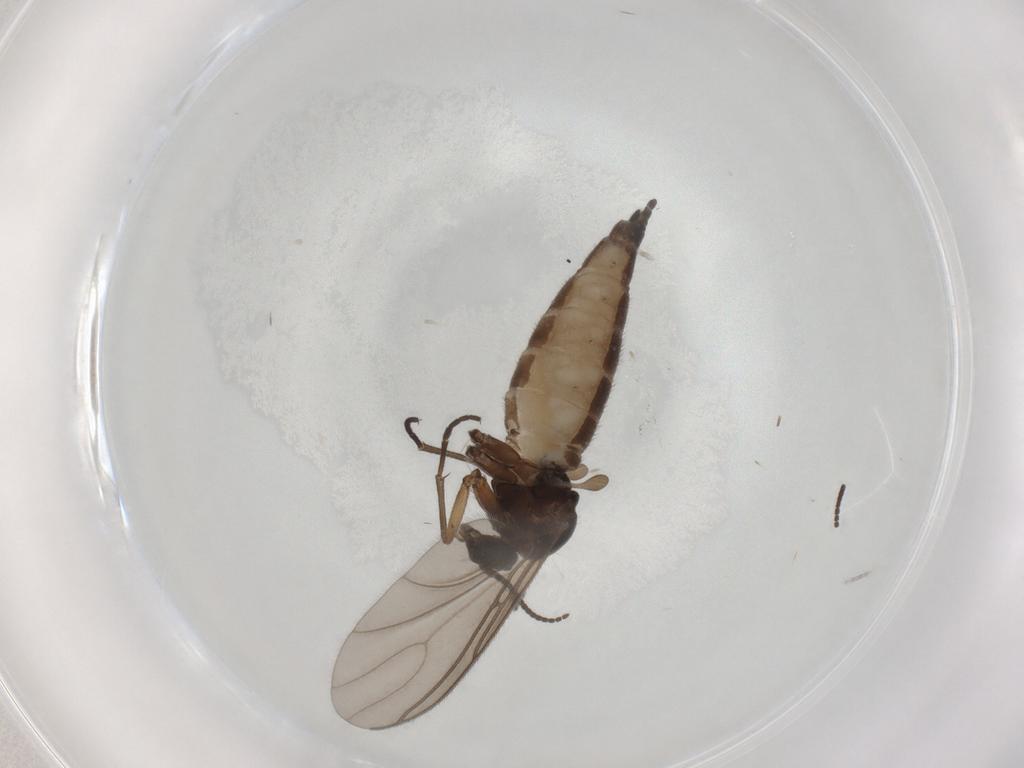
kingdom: Animalia
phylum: Arthropoda
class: Insecta
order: Diptera
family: Sciaridae
